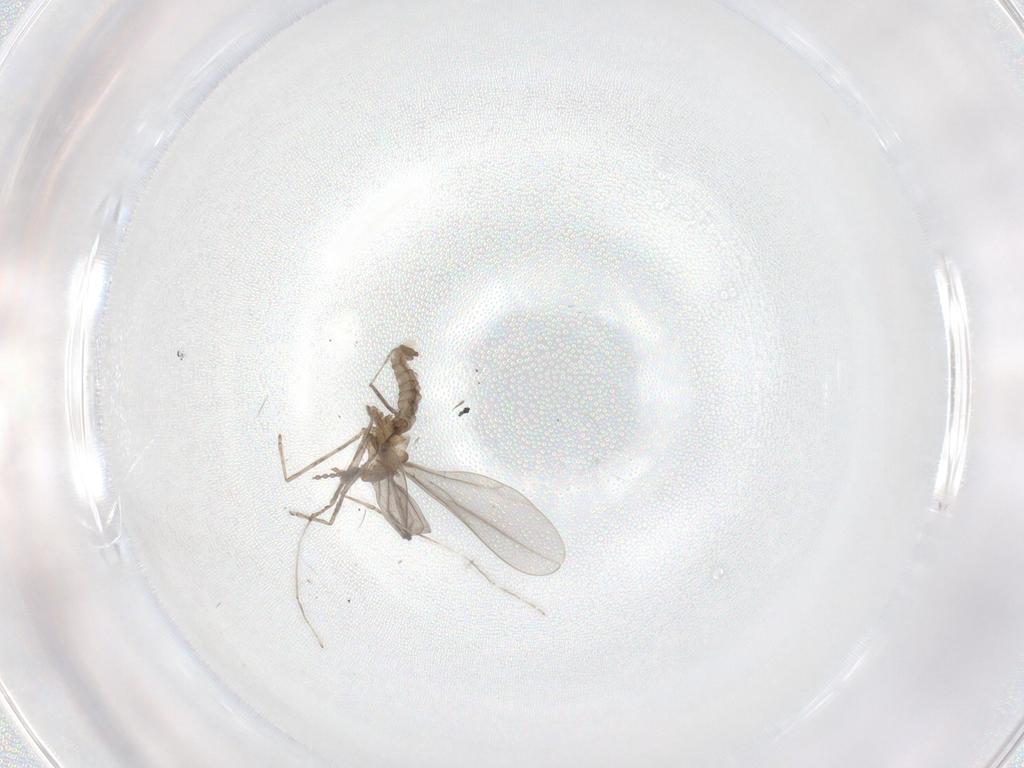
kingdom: Animalia
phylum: Arthropoda
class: Insecta
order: Diptera
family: Cecidomyiidae
